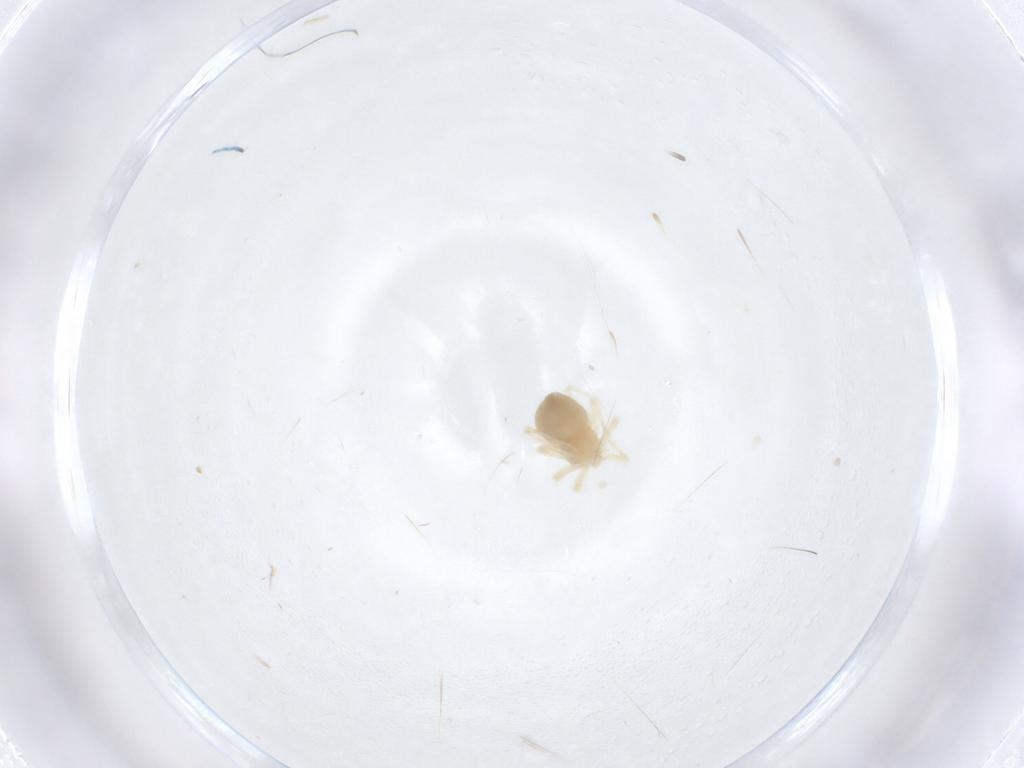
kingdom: Animalia
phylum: Arthropoda
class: Arachnida
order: Trombidiformes
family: Anystidae
